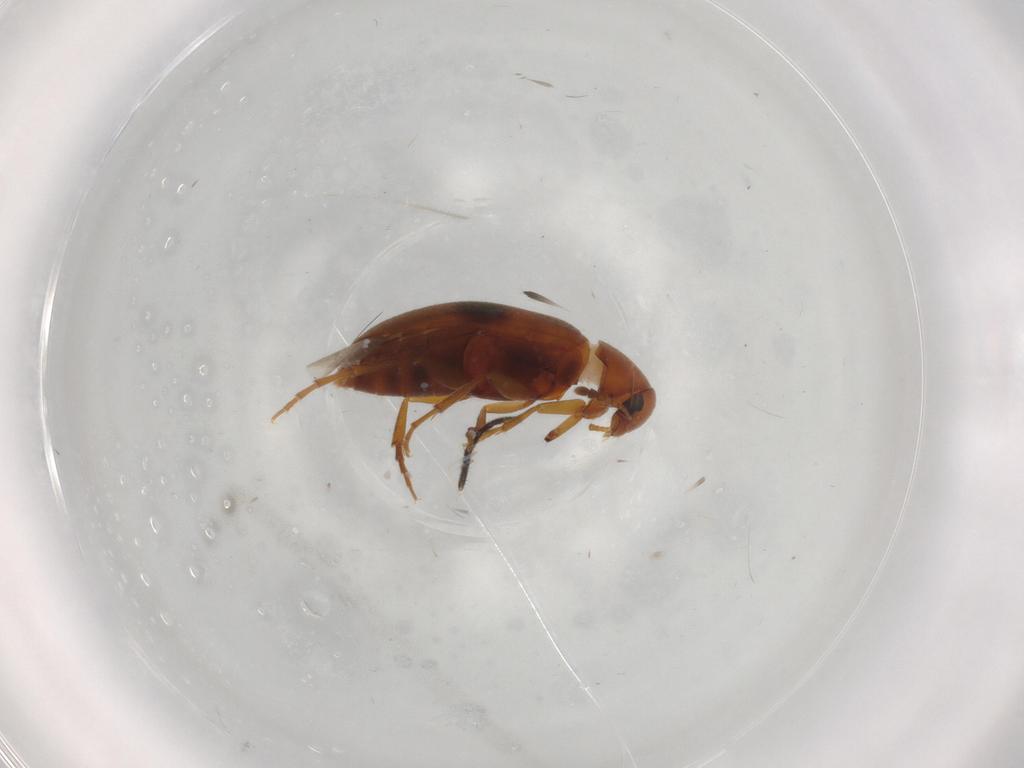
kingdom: Animalia
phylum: Arthropoda
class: Insecta
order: Coleoptera
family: Scraptiidae
